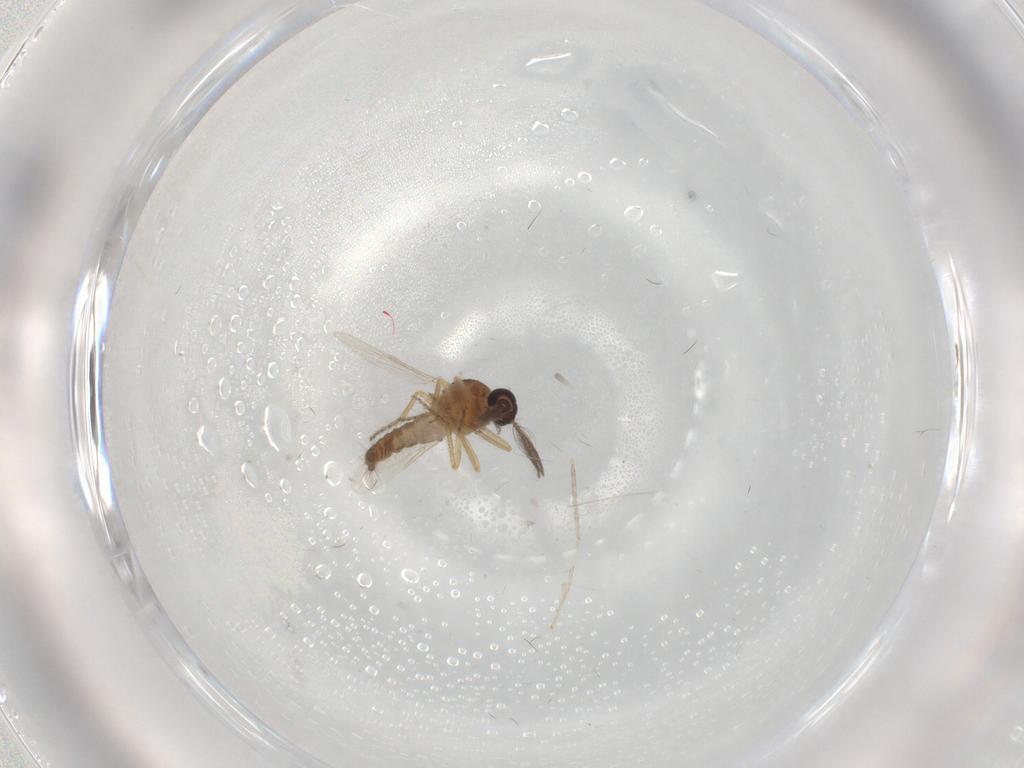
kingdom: Animalia
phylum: Arthropoda
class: Insecta
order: Diptera
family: Ceratopogonidae
